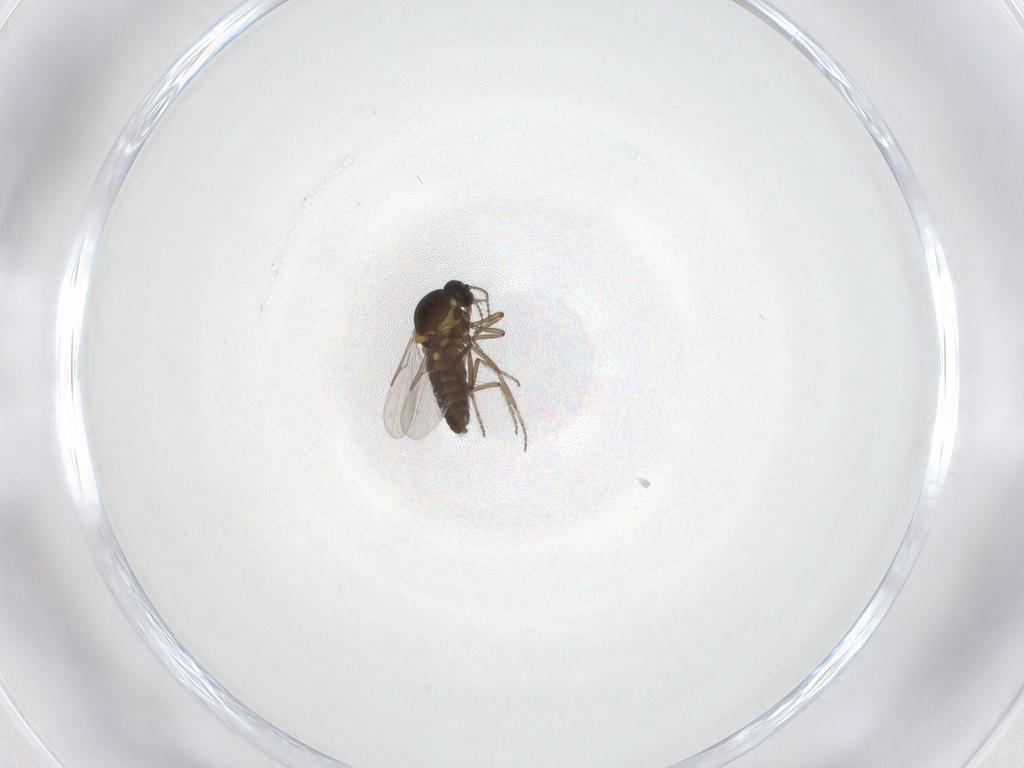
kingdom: Animalia
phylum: Arthropoda
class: Insecta
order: Diptera
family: Ceratopogonidae
